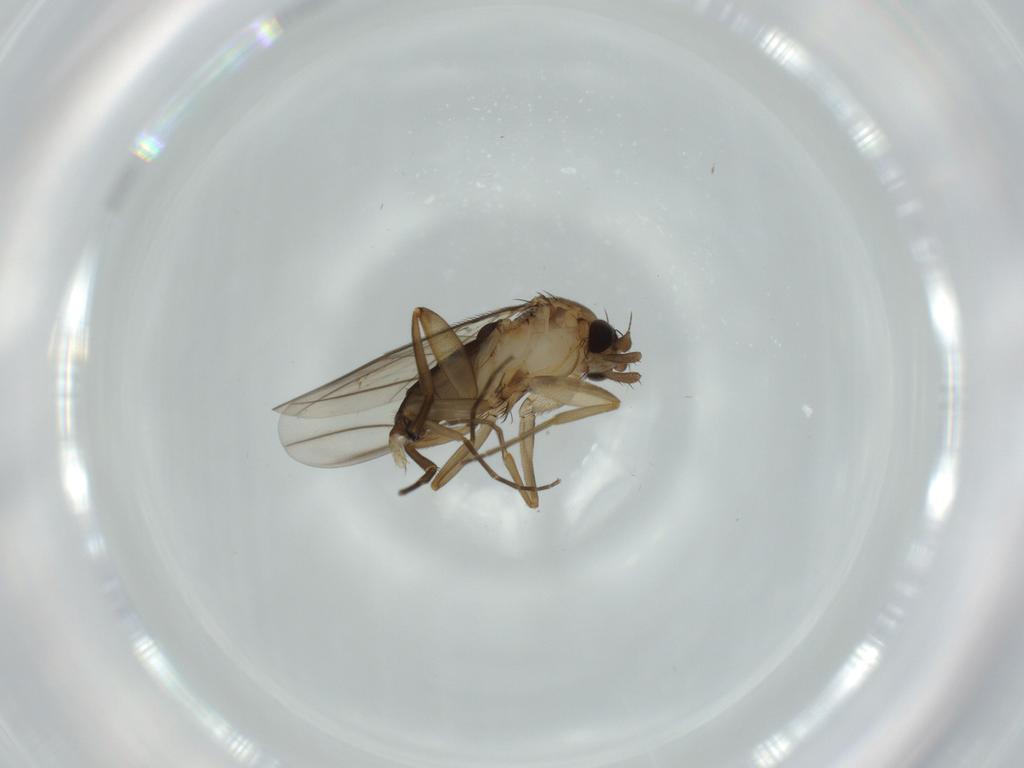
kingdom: Animalia
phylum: Arthropoda
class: Insecta
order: Diptera
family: Phoridae
